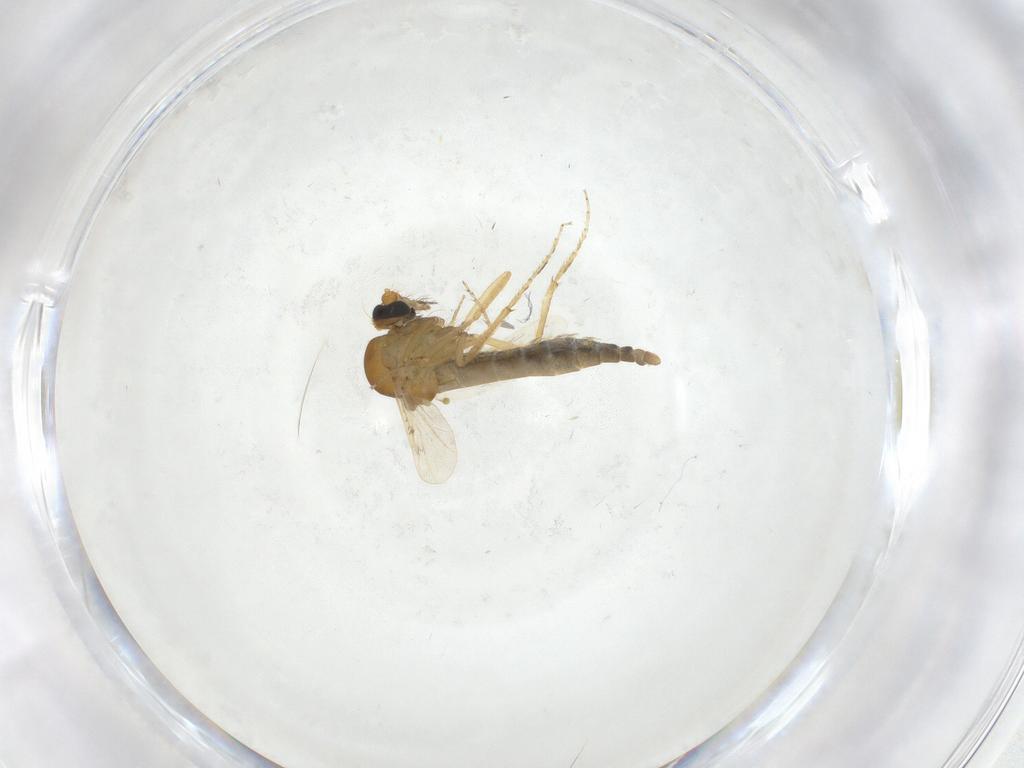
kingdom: Animalia
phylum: Arthropoda
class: Insecta
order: Diptera
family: Ceratopogonidae
